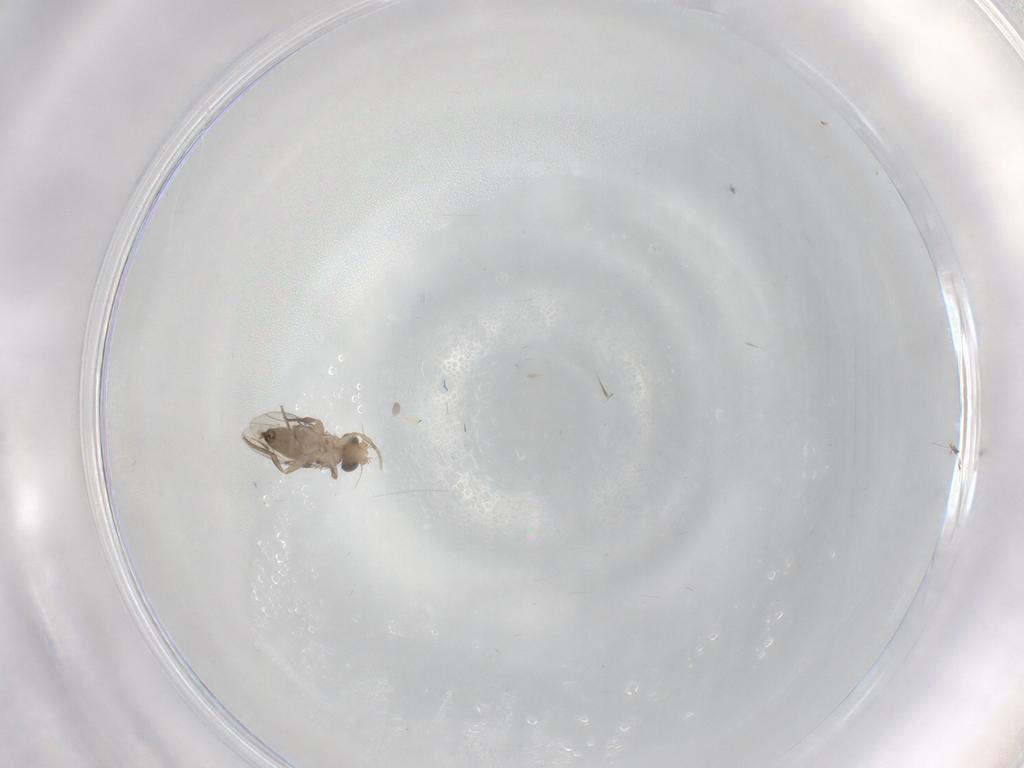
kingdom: Animalia
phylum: Arthropoda
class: Insecta
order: Diptera
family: Phoridae
